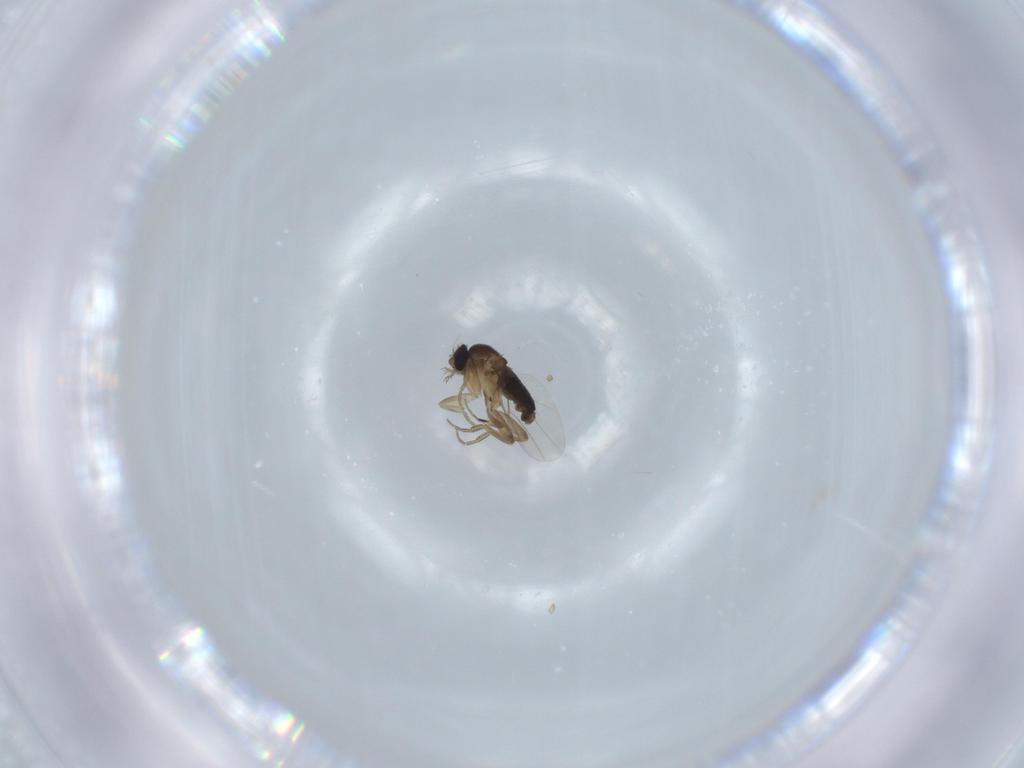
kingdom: Animalia
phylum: Arthropoda
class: Insecta
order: Diptera
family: Phoridae
